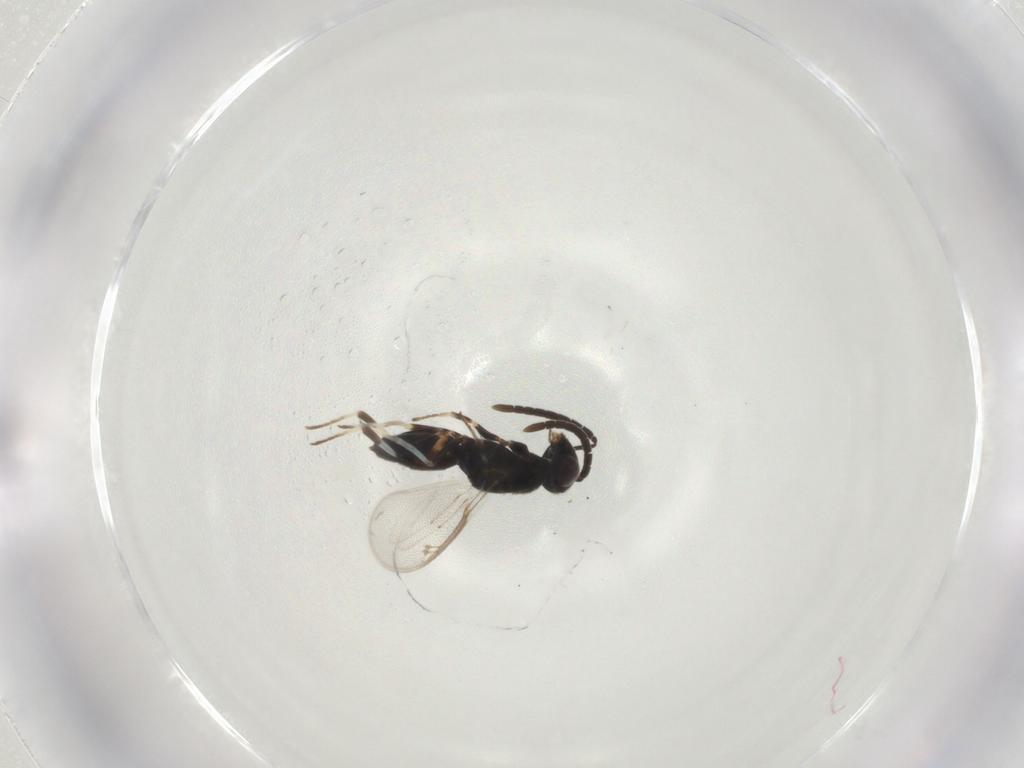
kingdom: Animalia
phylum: Arthropoda
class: Insecta
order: Hymenoptera
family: Eupelmidae
